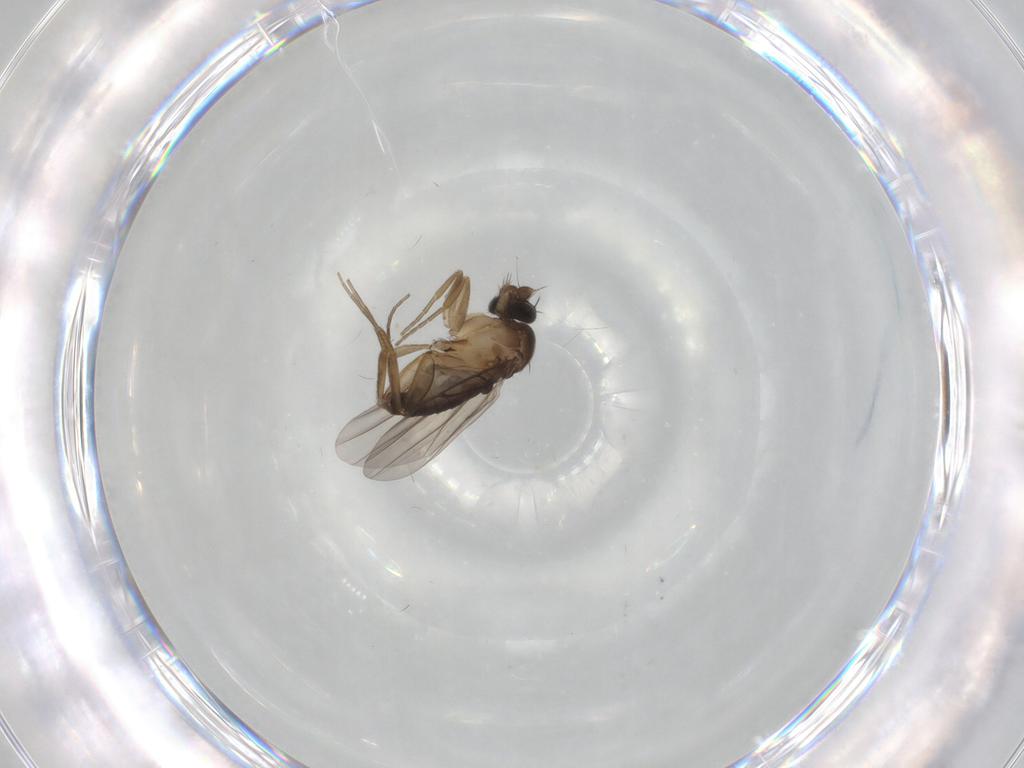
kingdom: Animalia
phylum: Arthropoda
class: Insecta
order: Diptera
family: Phoridae
